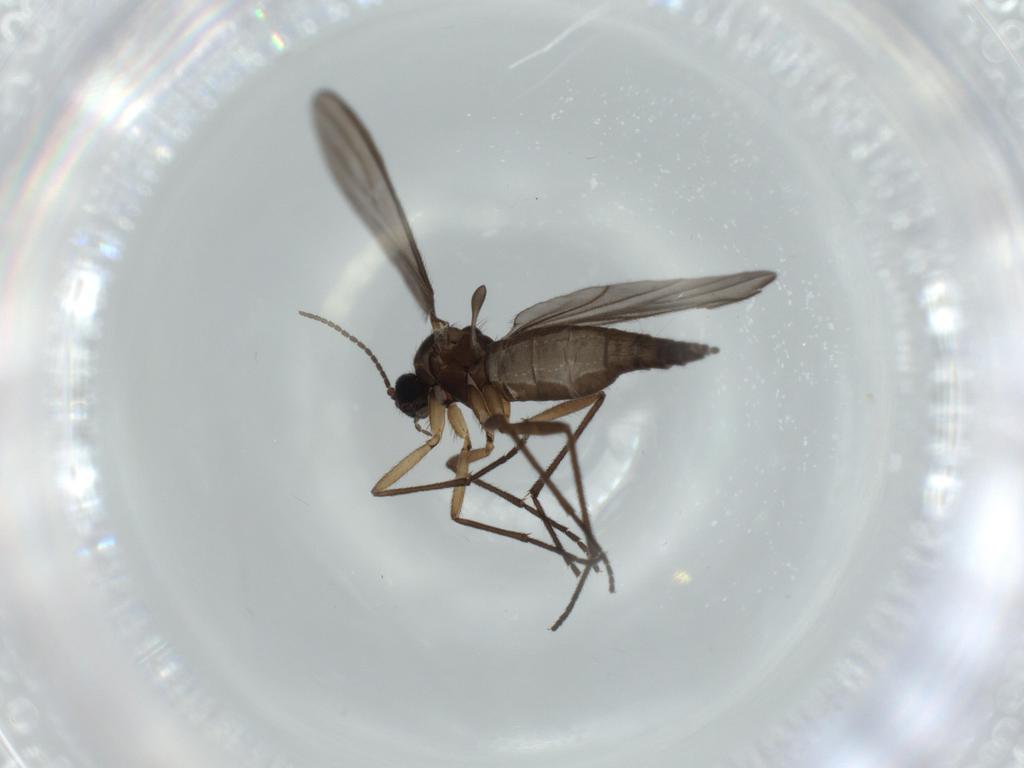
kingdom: Animalia
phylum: Arthropoda
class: Insecta
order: Diptera
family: Sciaridae
